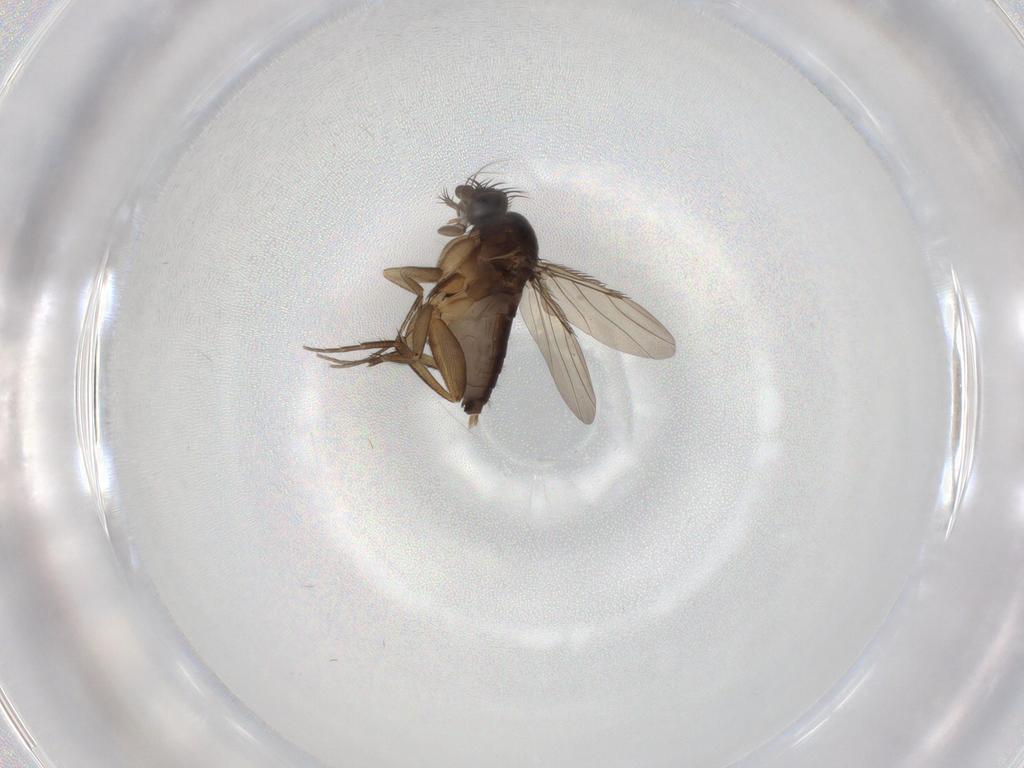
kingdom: Animalia
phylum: Arthropoda
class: Insecta
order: Diptera
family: Phoridae
